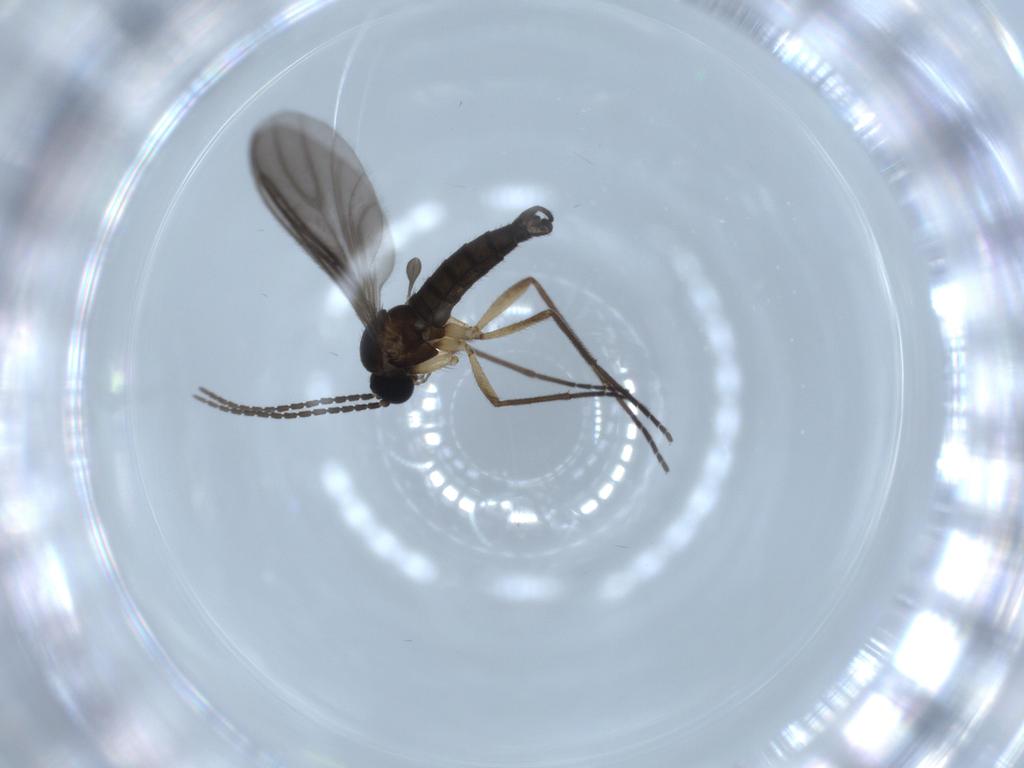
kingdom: Animalia
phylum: Arthropoda
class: Insecta
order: Diptera
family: Sciaridae
